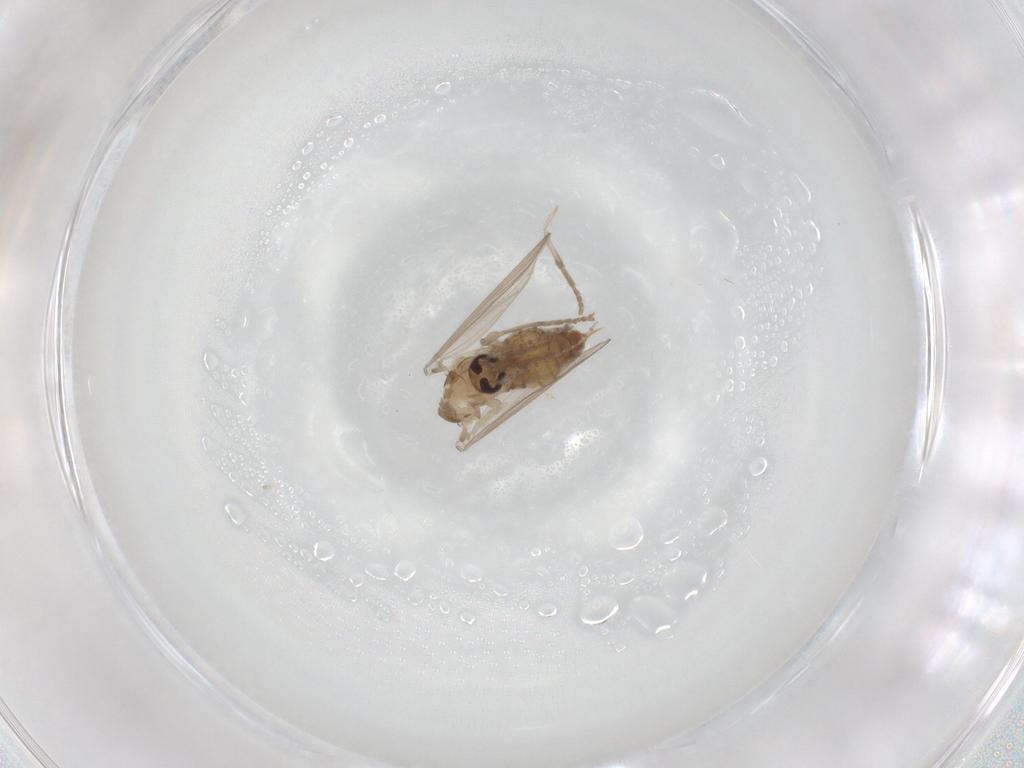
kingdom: Animalia
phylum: Arthropoda
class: Insecta
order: Diptera
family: Psychodidae
